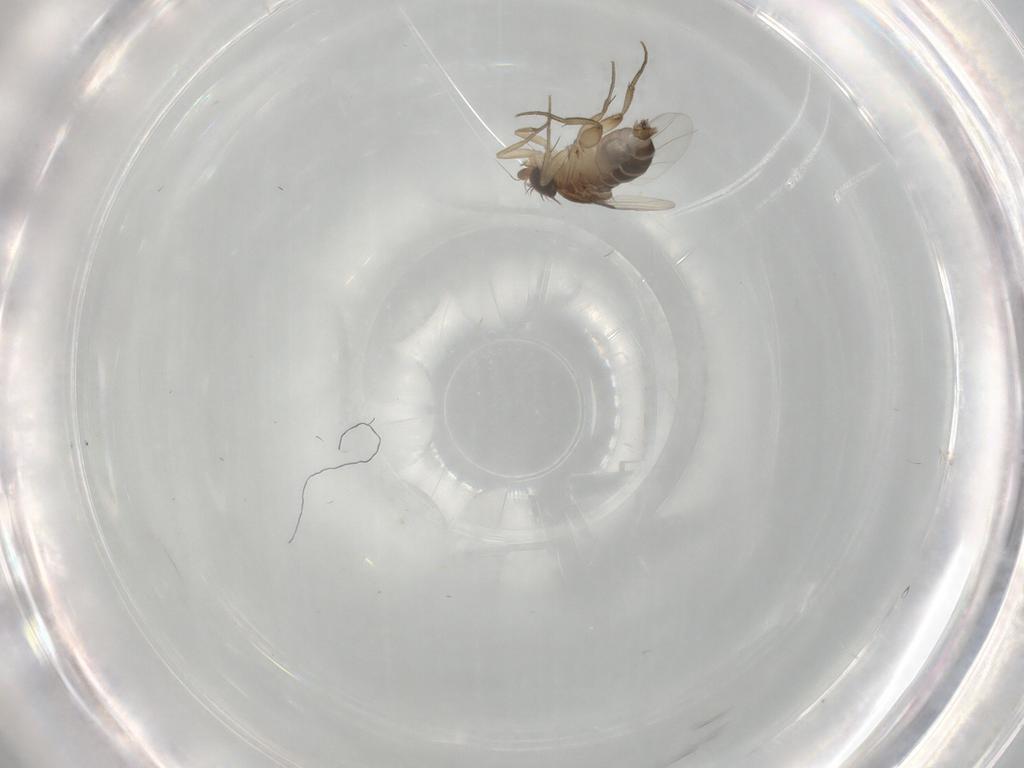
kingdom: Animalia
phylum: Arthropoda
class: Insecta
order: Diptera
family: Phoridae
